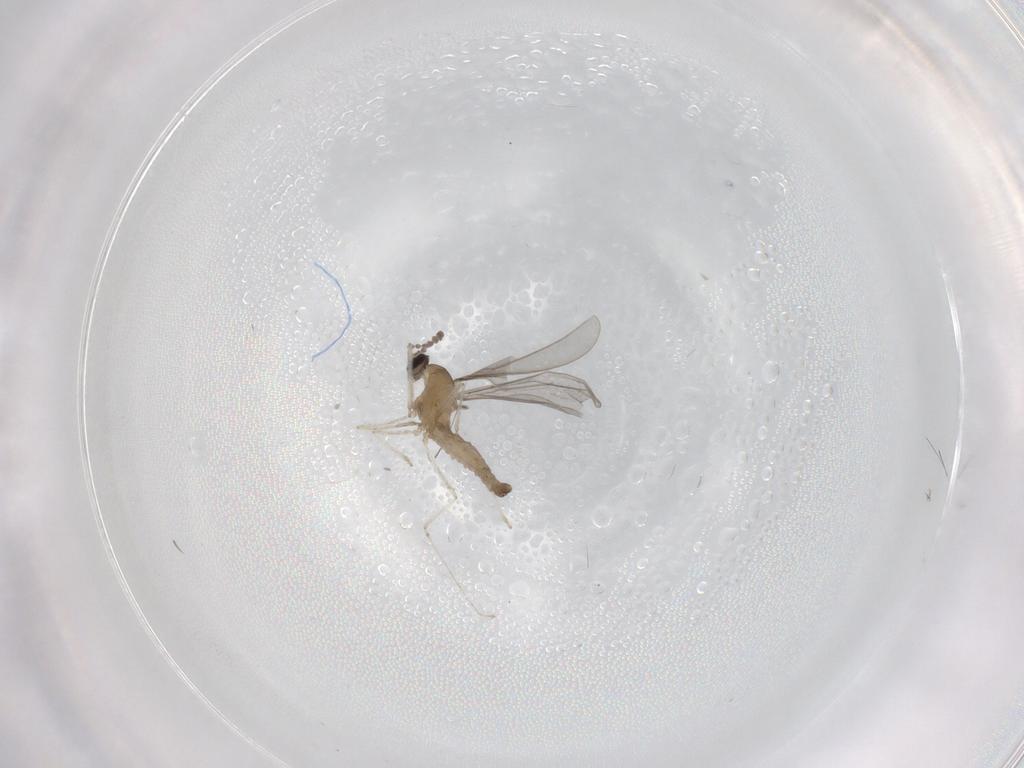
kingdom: Animalia
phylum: Arthropoda
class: Insecta
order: Diptera
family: Cecidomyiidae
